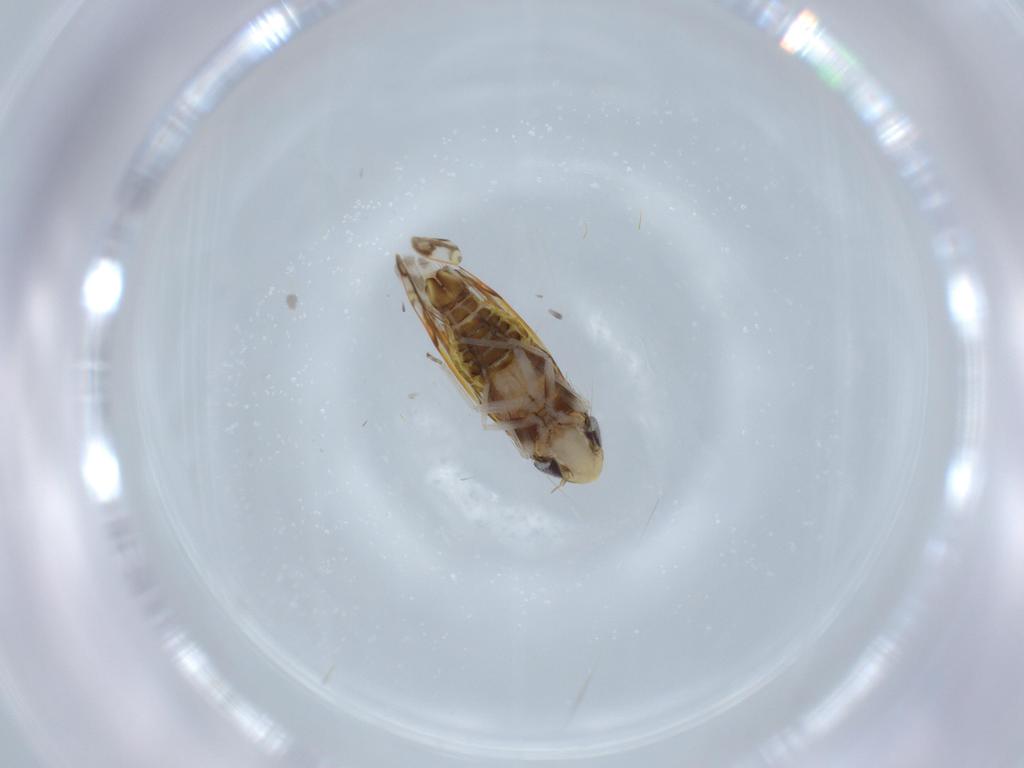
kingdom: Animalia
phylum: Arthropoda
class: Insecta
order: Hemiptera
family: Cicadellidae
